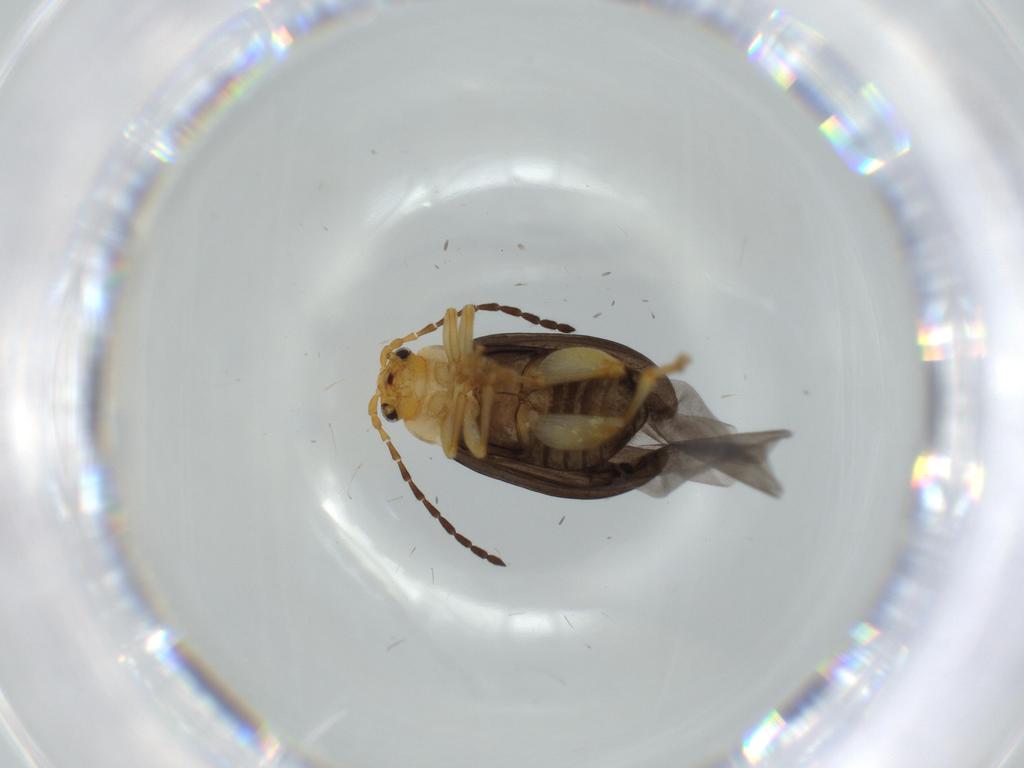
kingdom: Animalia
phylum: Arthropoda
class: Insecta
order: Coleoptera
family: Chrysomelidae
